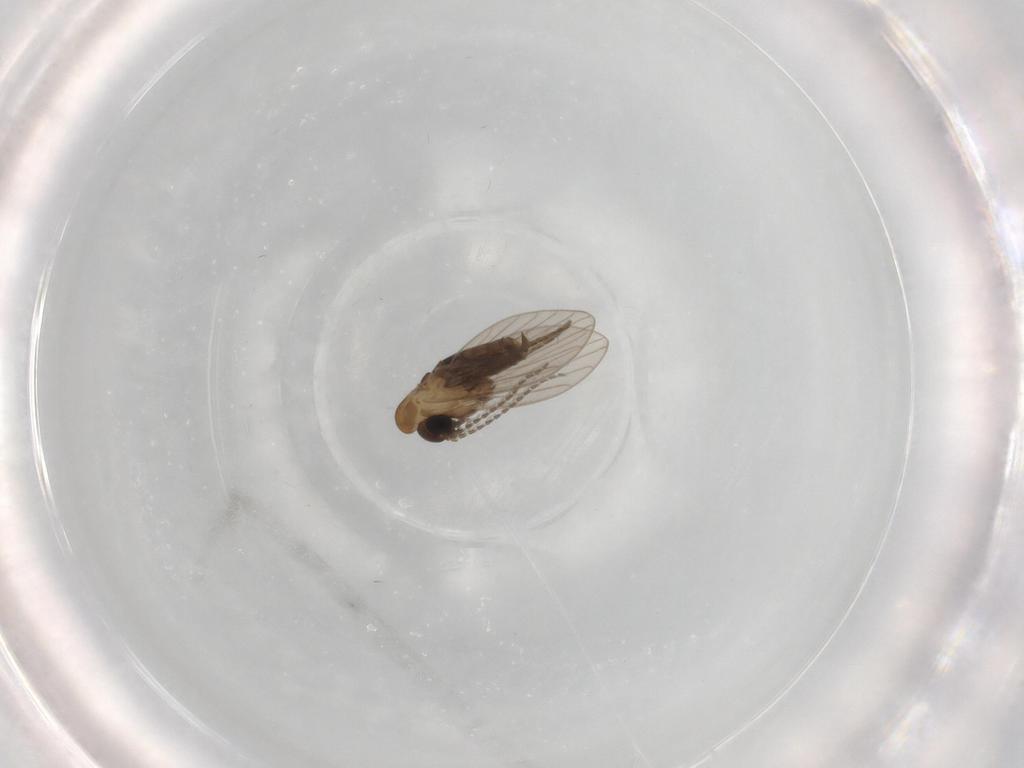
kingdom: Animalia
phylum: Arthropoda
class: Insecta
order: Diptera
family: Psychodidae
